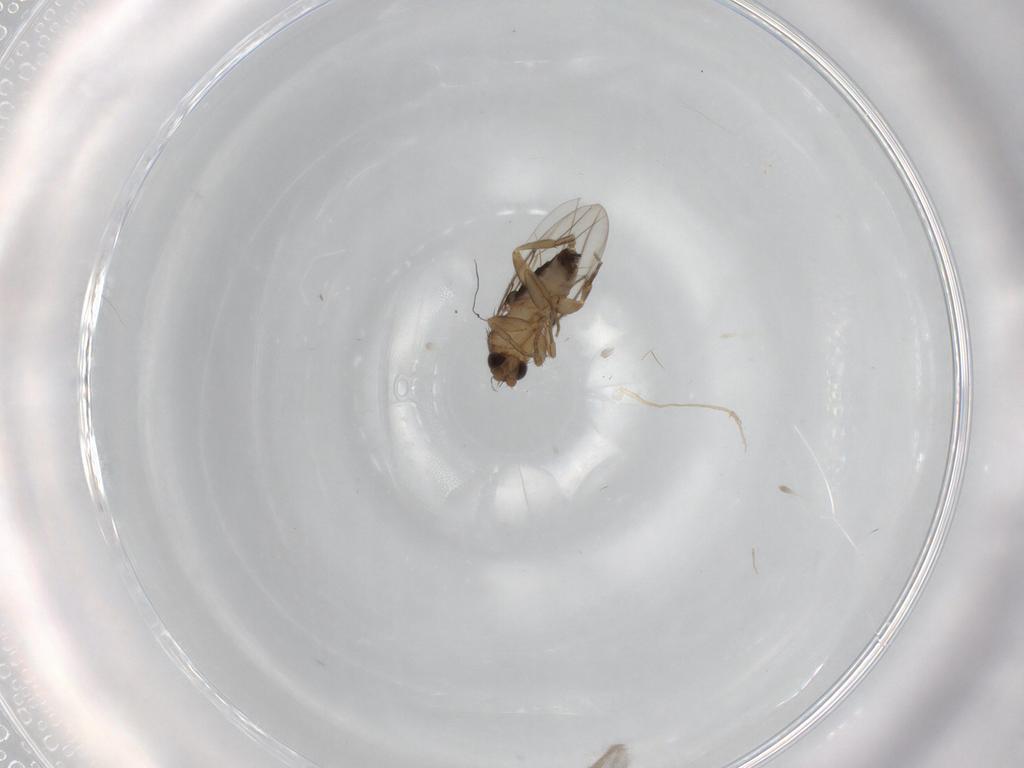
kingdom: Animalia
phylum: Arthropoda
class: Insecta
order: Diptera
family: Phoridae
